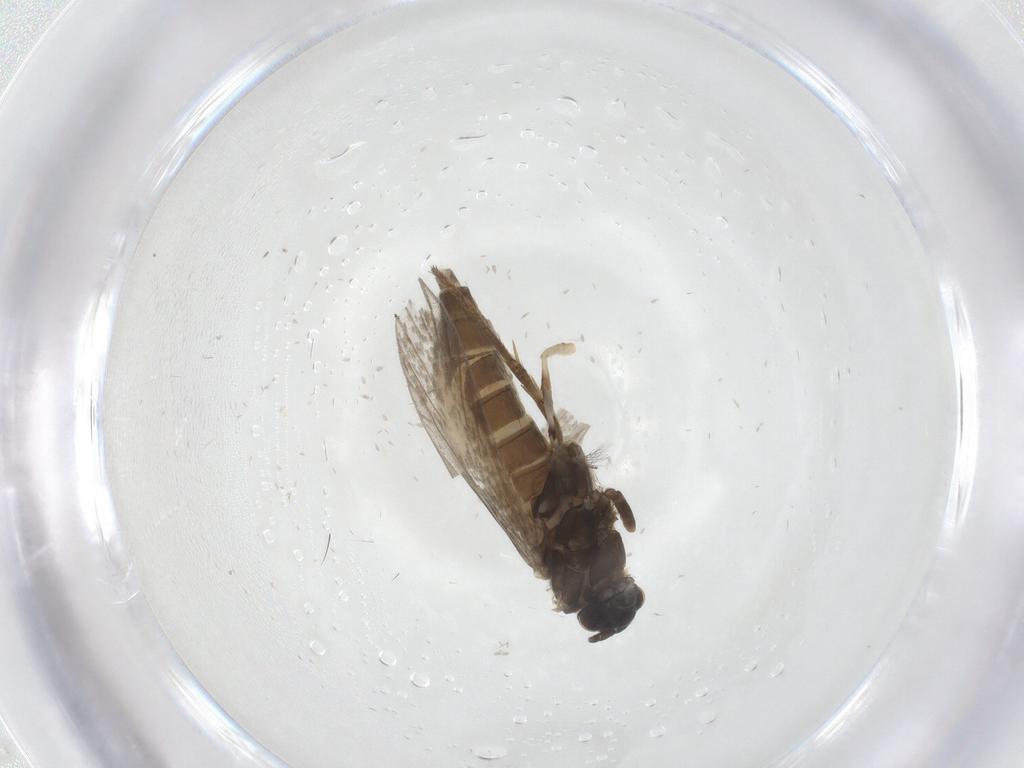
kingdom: Animalia
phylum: Arthropoda
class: Insecta
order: Lepidoptera
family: Gracillariidae
